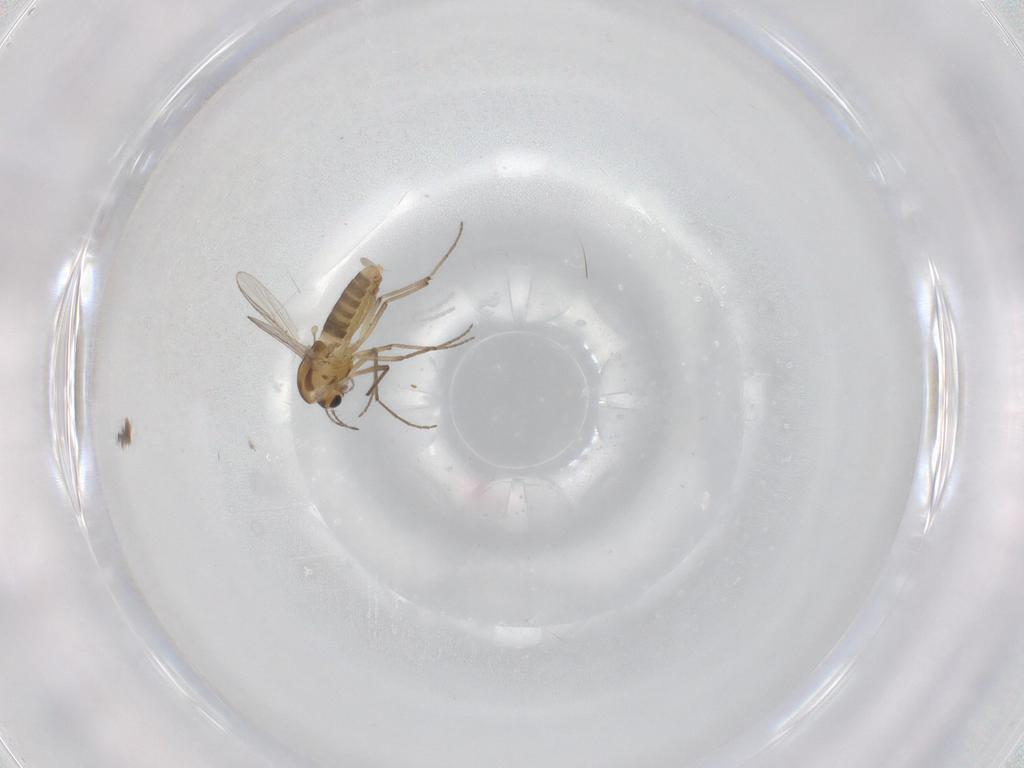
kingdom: Animalia
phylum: Arthropoda
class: Insecta
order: Diptera
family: Chironomidae
